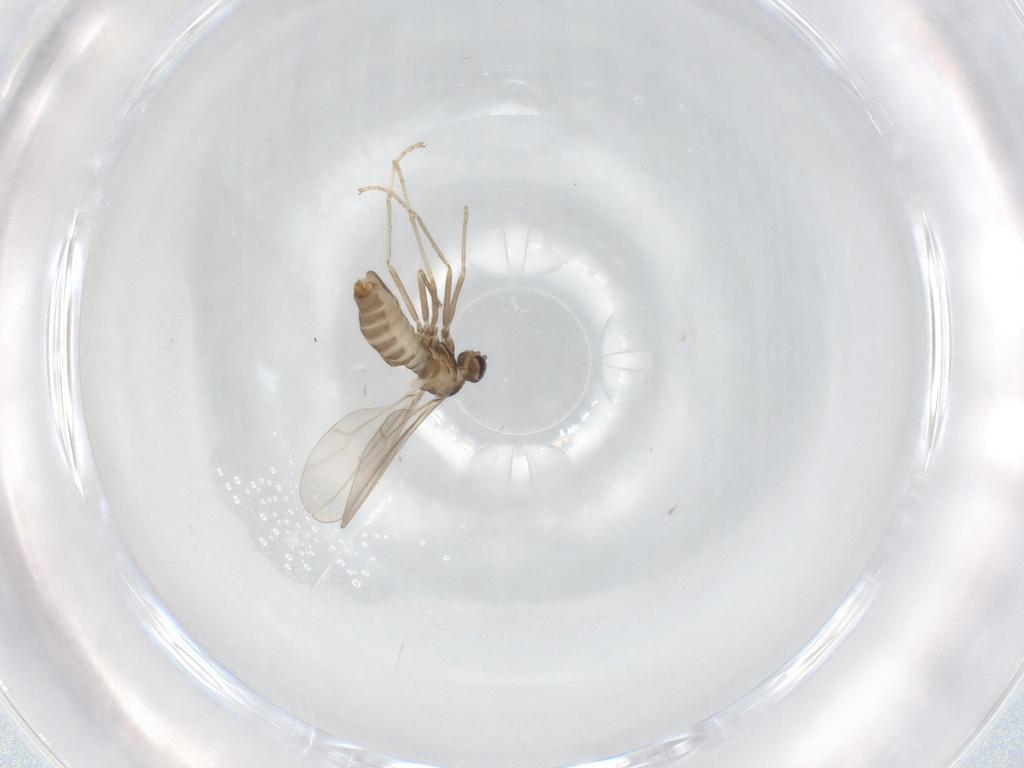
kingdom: Animalia
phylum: Arthropoda
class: Insecta
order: Diptera
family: Cecidomyiidae
